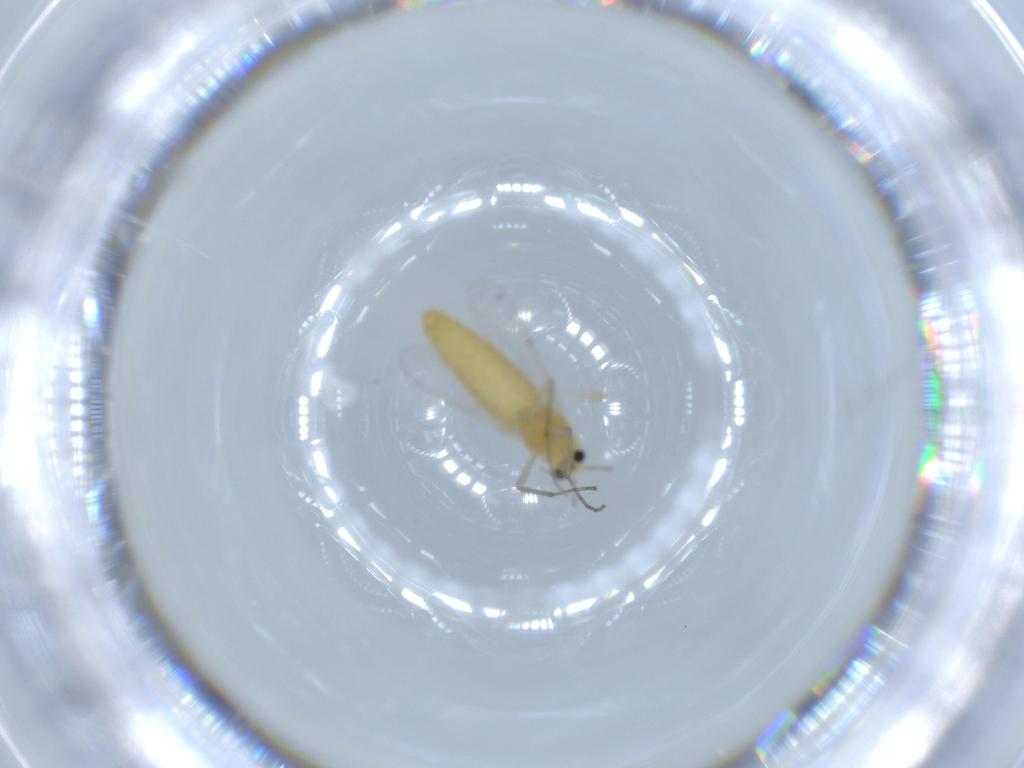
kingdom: Animalia
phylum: Arthropoda
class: Insecta
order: Diptera
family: Chironomidae
